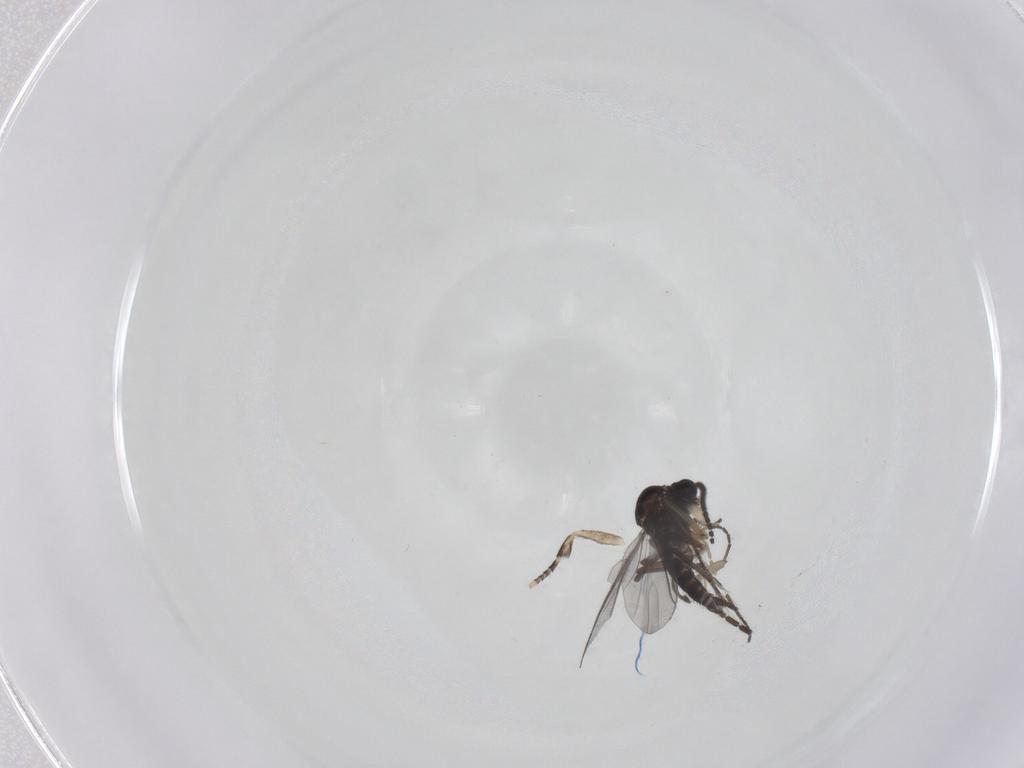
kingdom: Animalia
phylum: Arthropoda
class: Insecta
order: Diptera
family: Sciaridae
